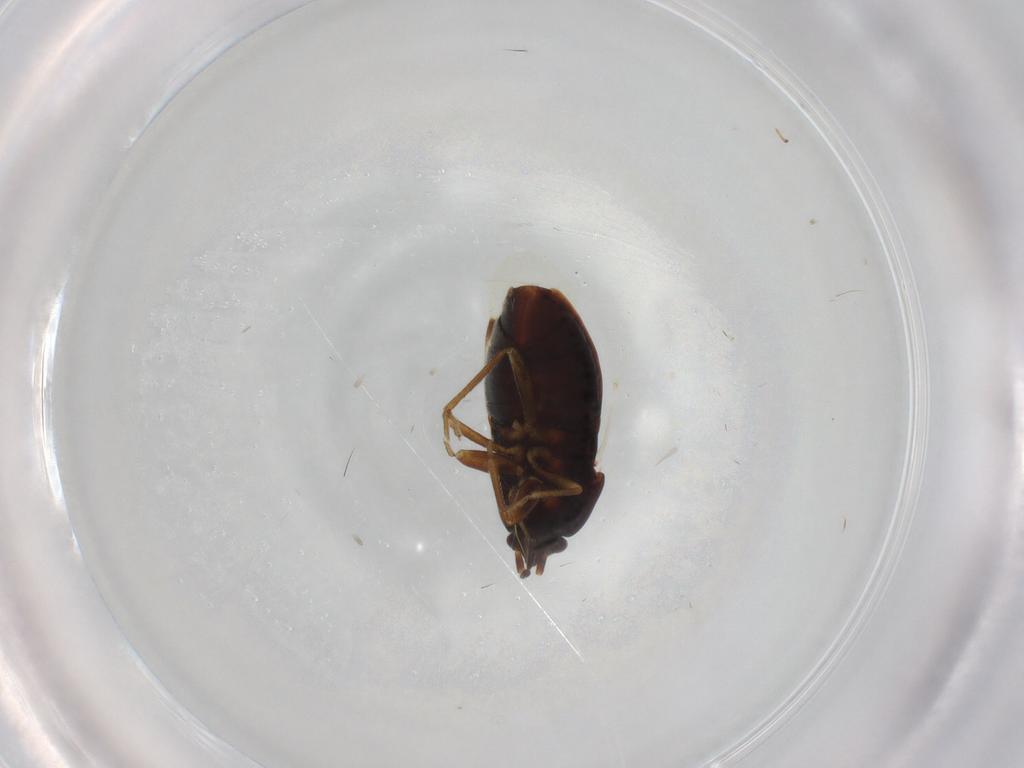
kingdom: Animalia
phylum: Arthropoda
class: Insecta
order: Hemiptera
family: Rhyparochromidae
